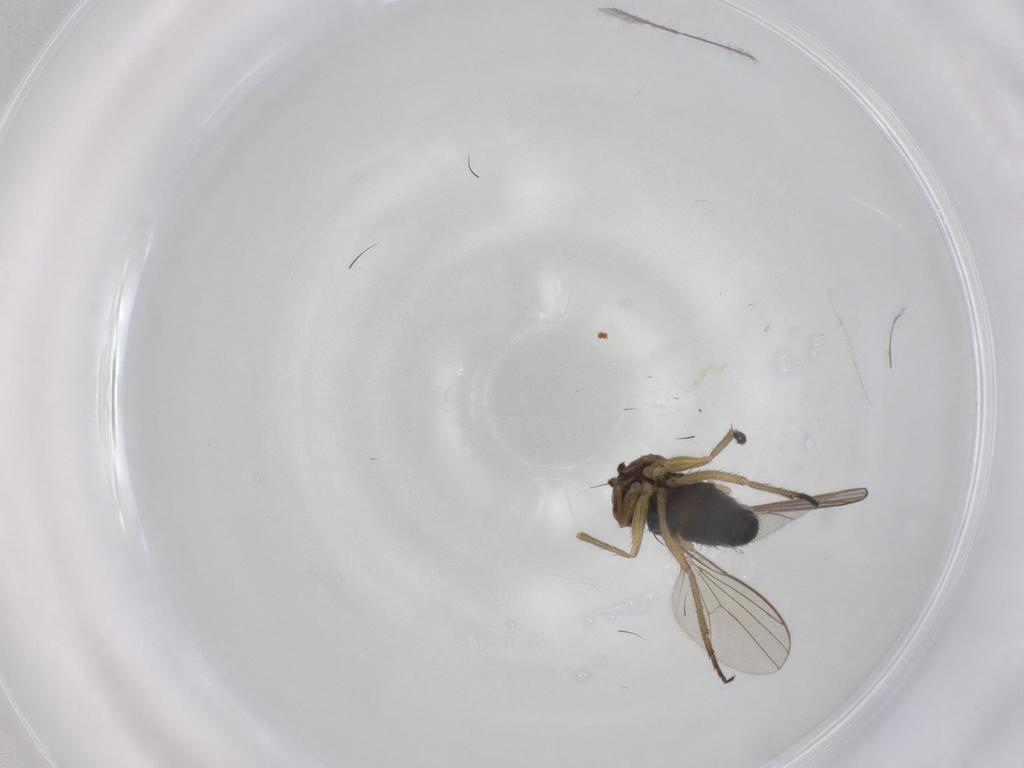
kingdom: Animalia
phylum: Arthropoda
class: Insecta
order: Diptera
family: Dolichopodidae
